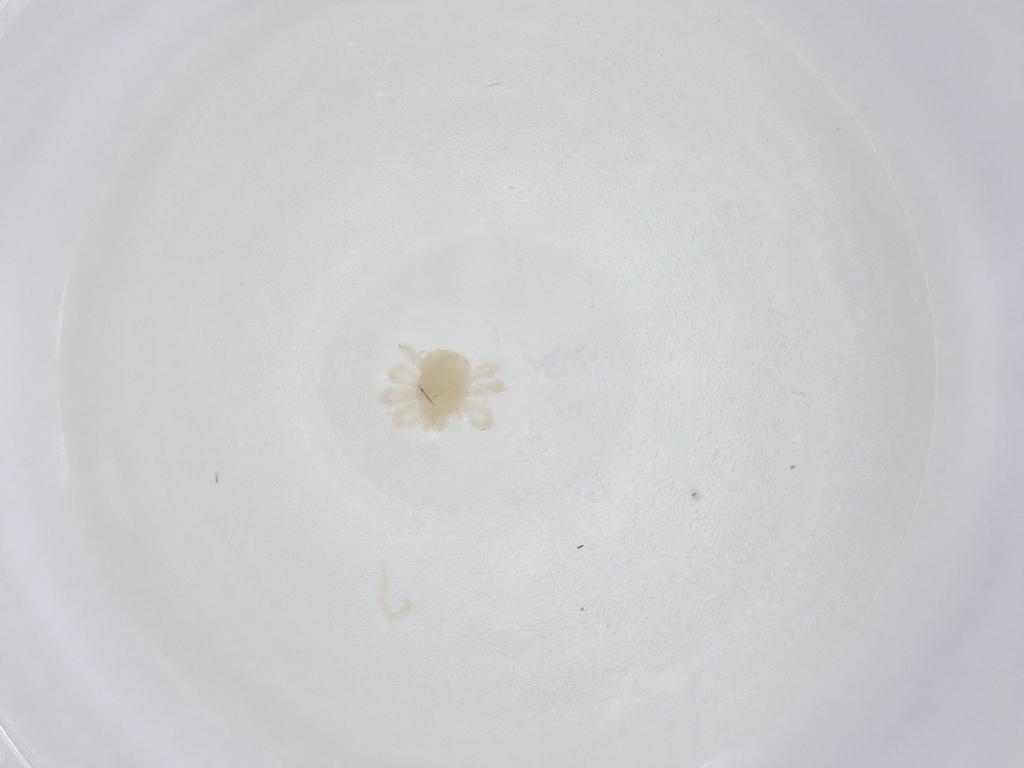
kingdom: Animalia
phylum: Arthropoda
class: Arachnida
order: Trombidiformes
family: Anystidae
